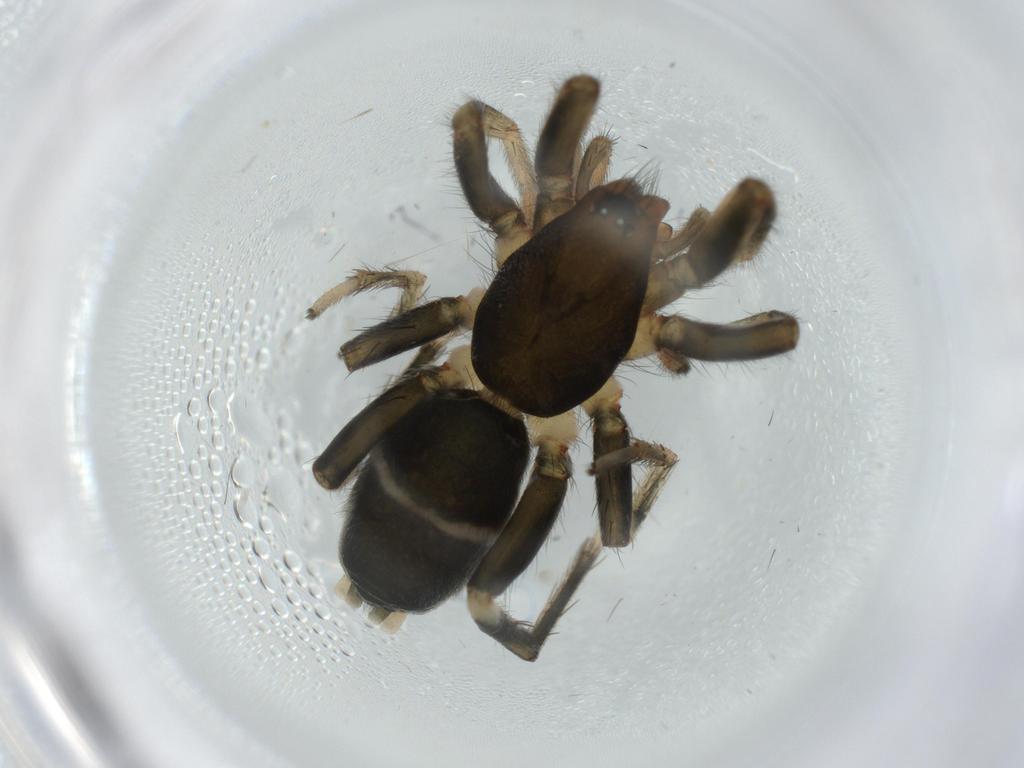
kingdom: Animalia
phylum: Arthropoda
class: Arachnida
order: Araneae
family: Gnaphosidae
